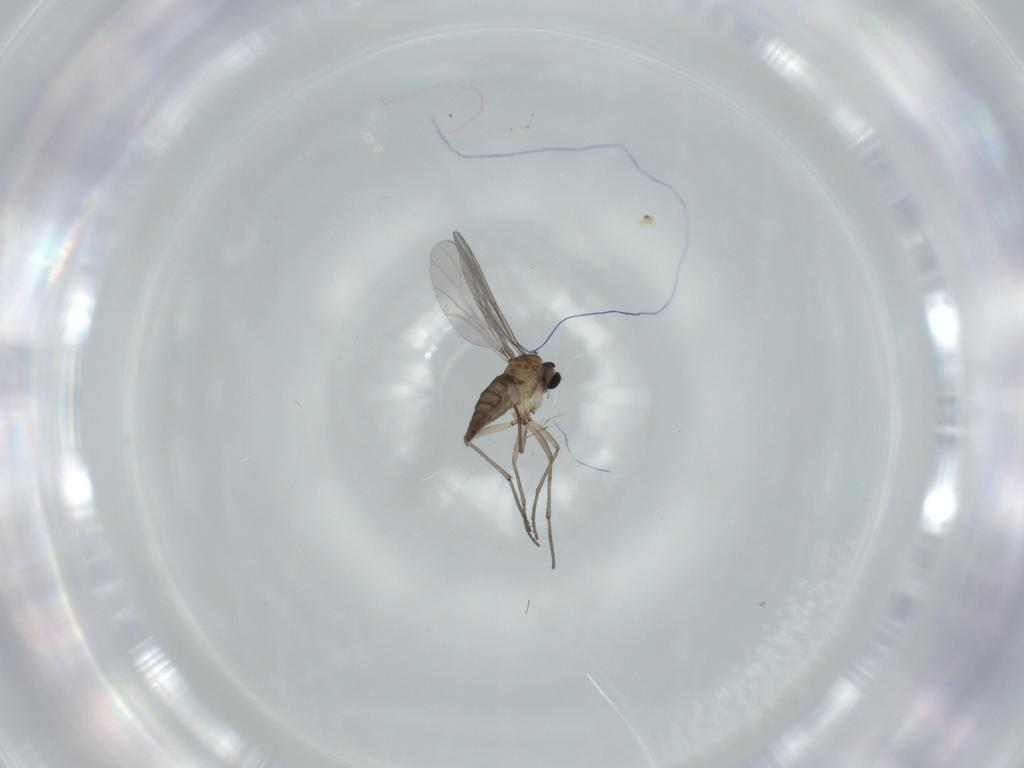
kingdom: Animalia
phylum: Arthropoda
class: Insecta
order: Diptera
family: Sciaridae
